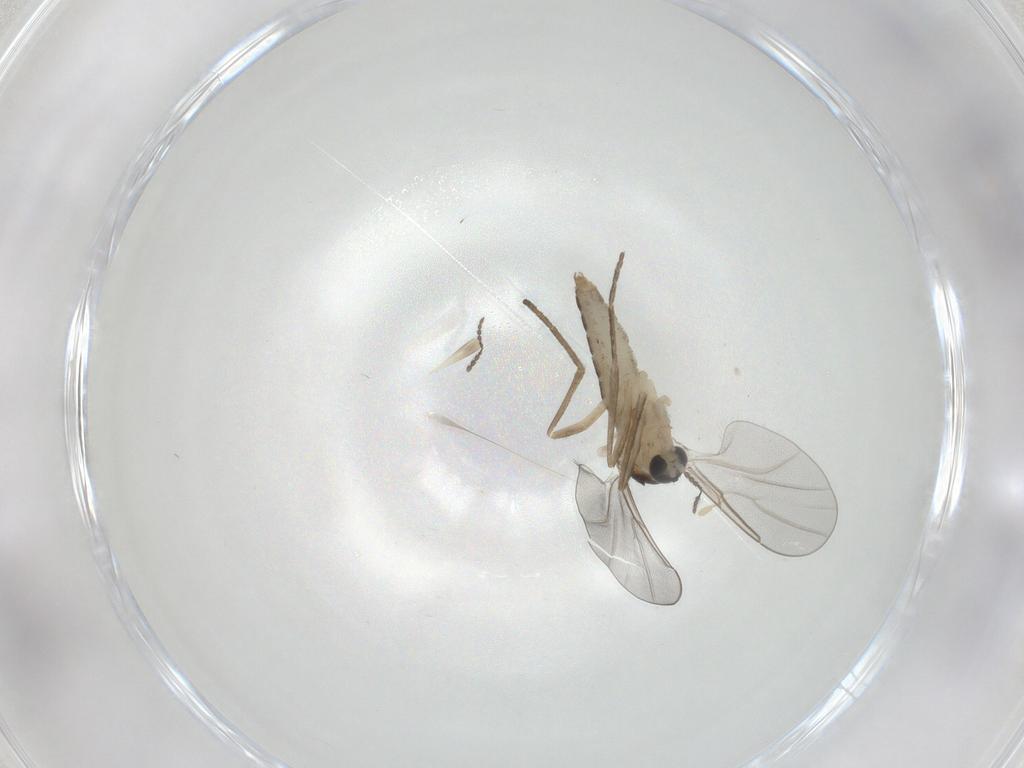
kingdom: Animalia
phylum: Arthropoda
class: Insecta
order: Diptera
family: Cecidomyiidae
